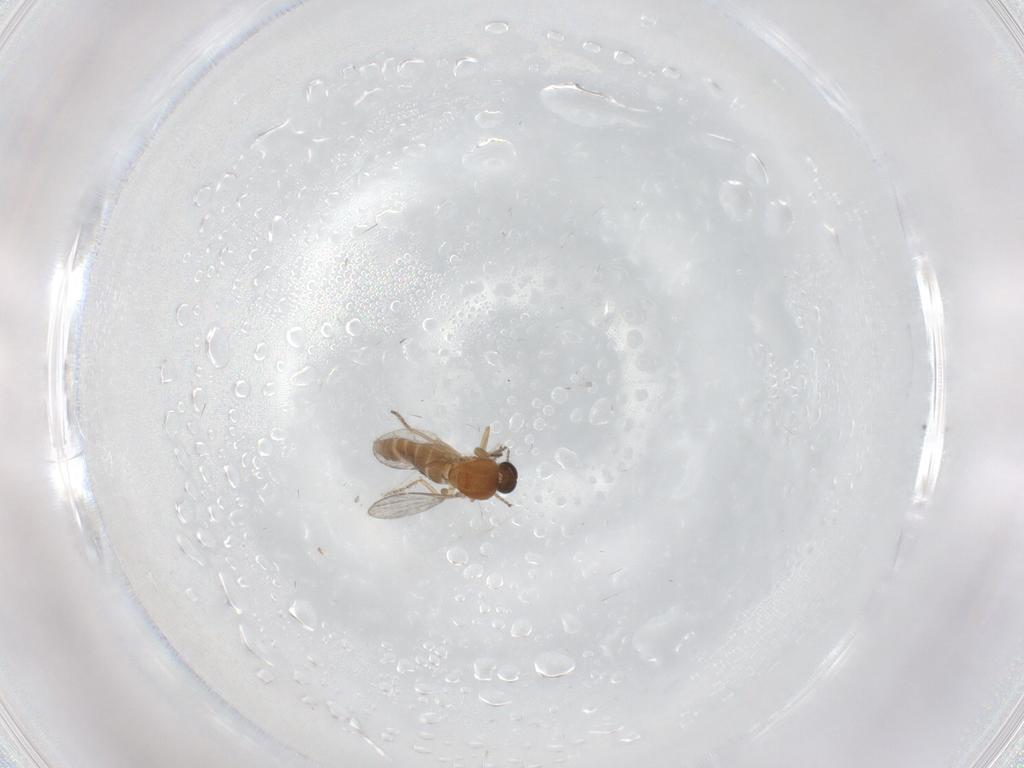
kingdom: Animalia
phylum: Arthropoda
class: Insecta
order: Diptera
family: Ceratopogonidae
